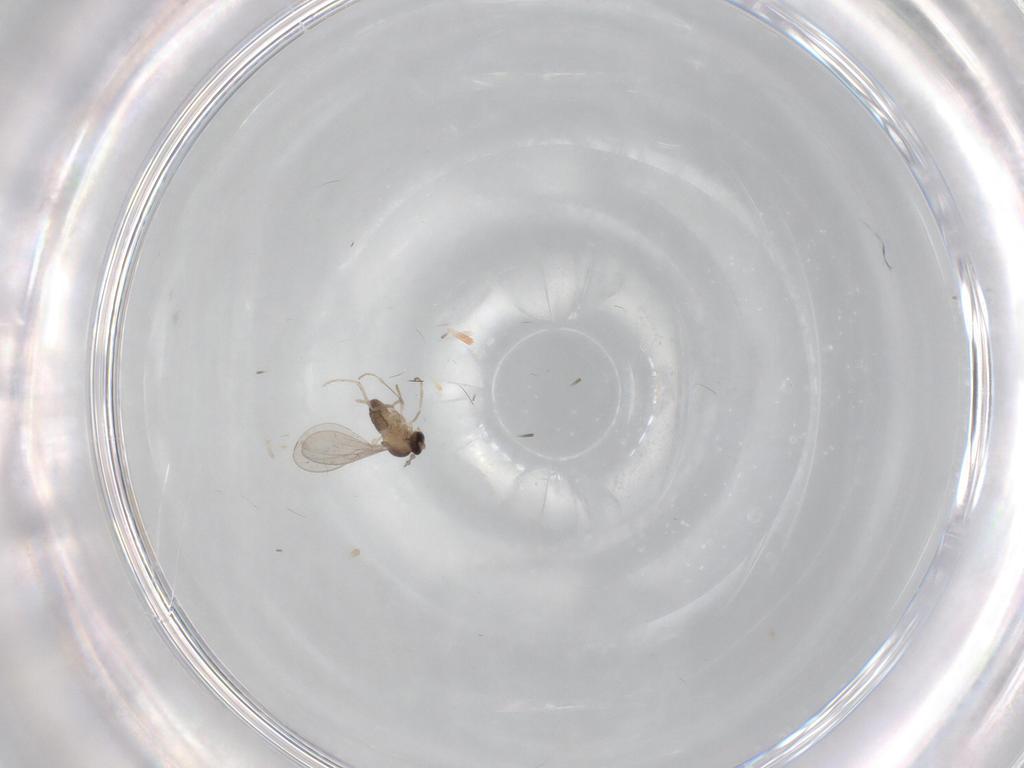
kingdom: Animalia
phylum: Arthropoda
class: Insecta
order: Diptera
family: Cecidomyiidae
